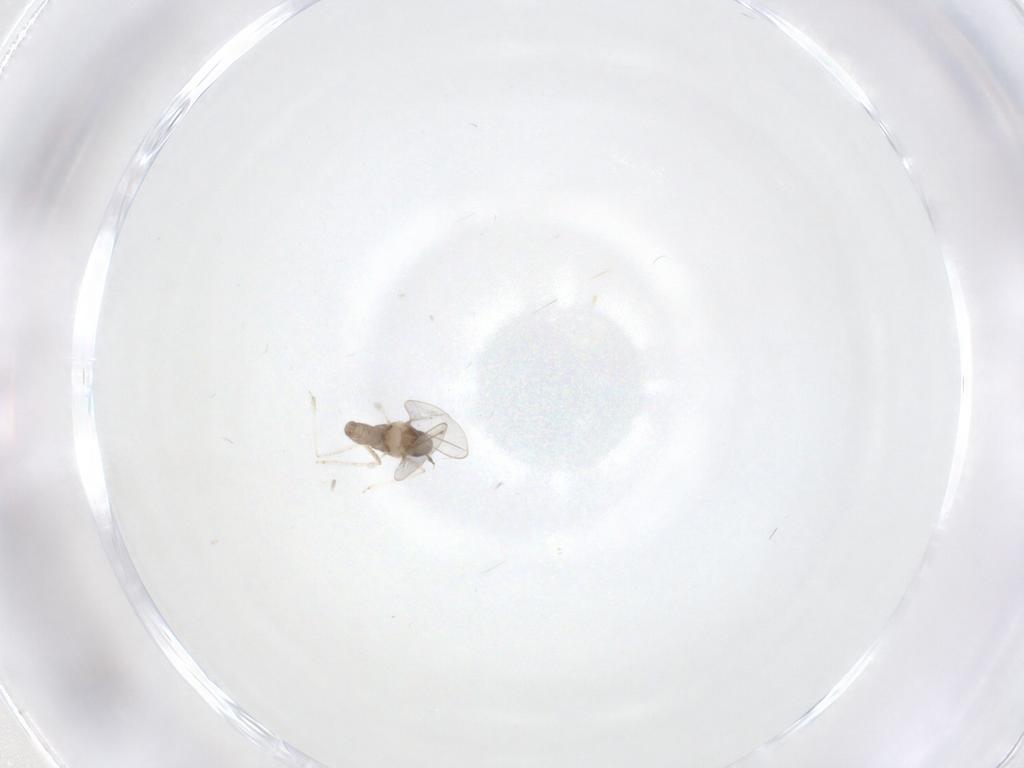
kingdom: Animalia
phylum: Arthropoda
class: Insecta
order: Diptera
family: Cecidomyiidae
